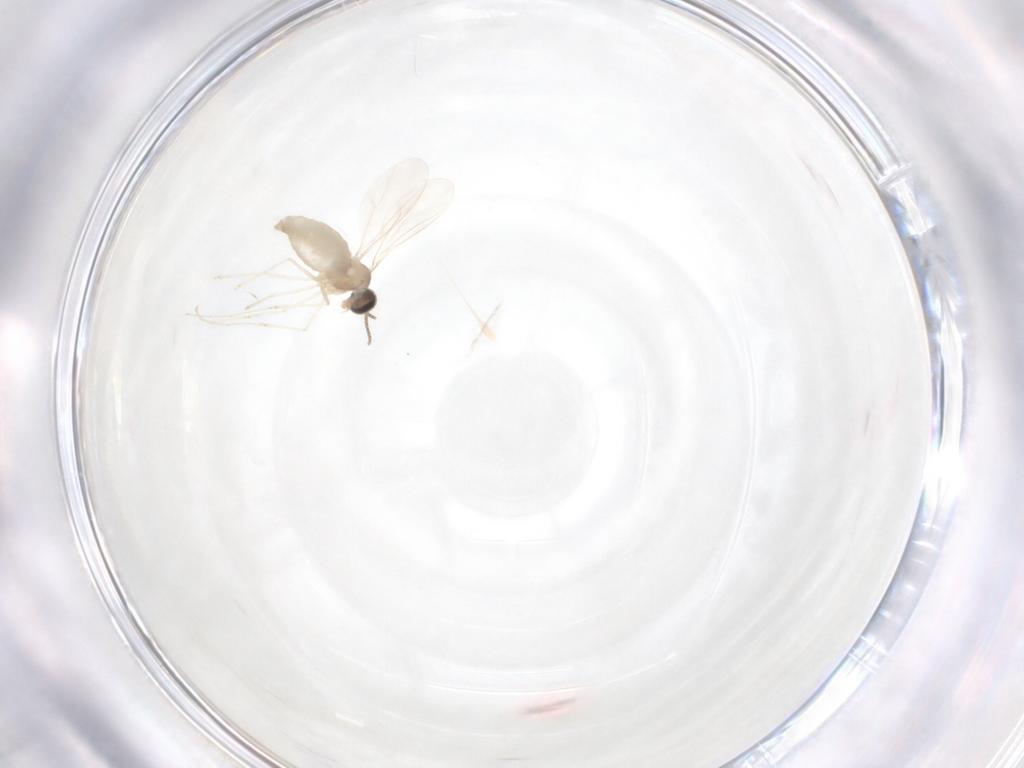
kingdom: Animalia
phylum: Arthropoda
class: Insecta
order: Diptera
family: Cecidomyiidae
